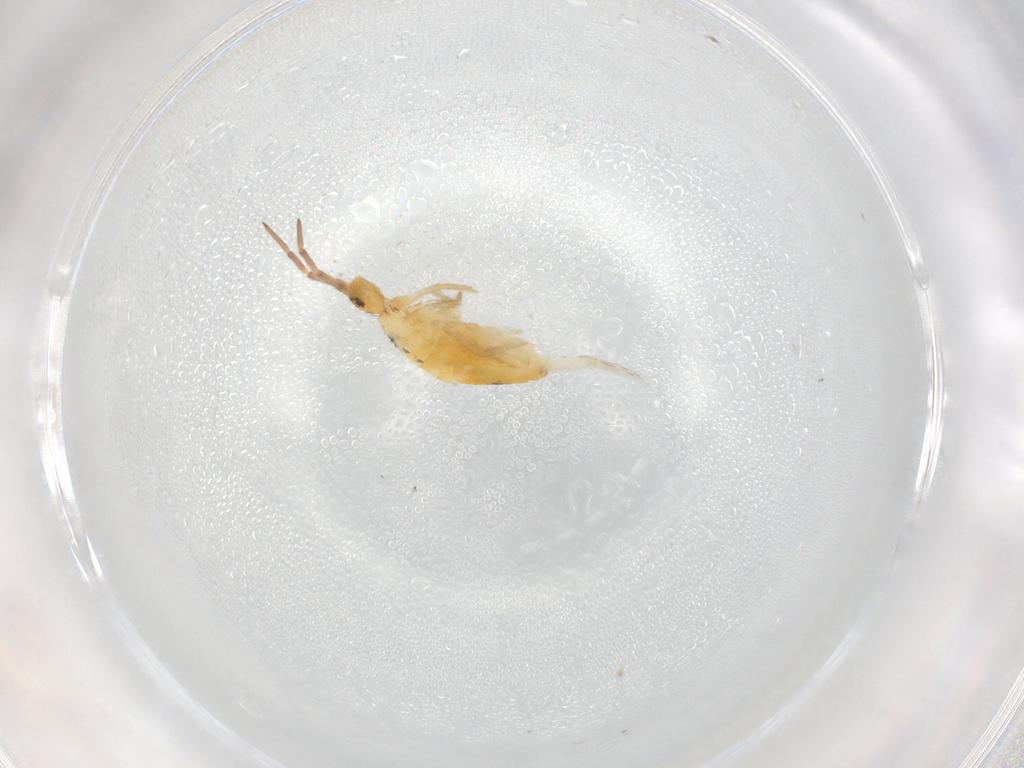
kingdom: Animalia
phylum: Arthropoda
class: Collembola
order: Entomobryomorpha
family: Entomobryidae
